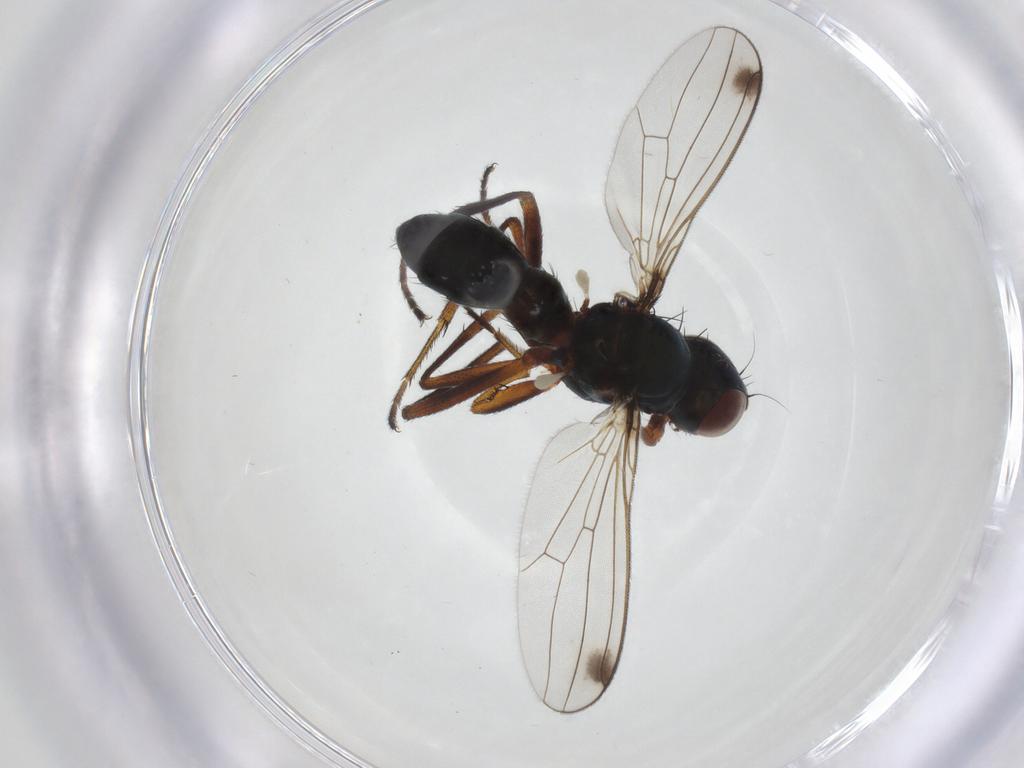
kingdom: Animalia
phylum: Arthropoda
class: Insecta
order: Diptera
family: Sepsidae
